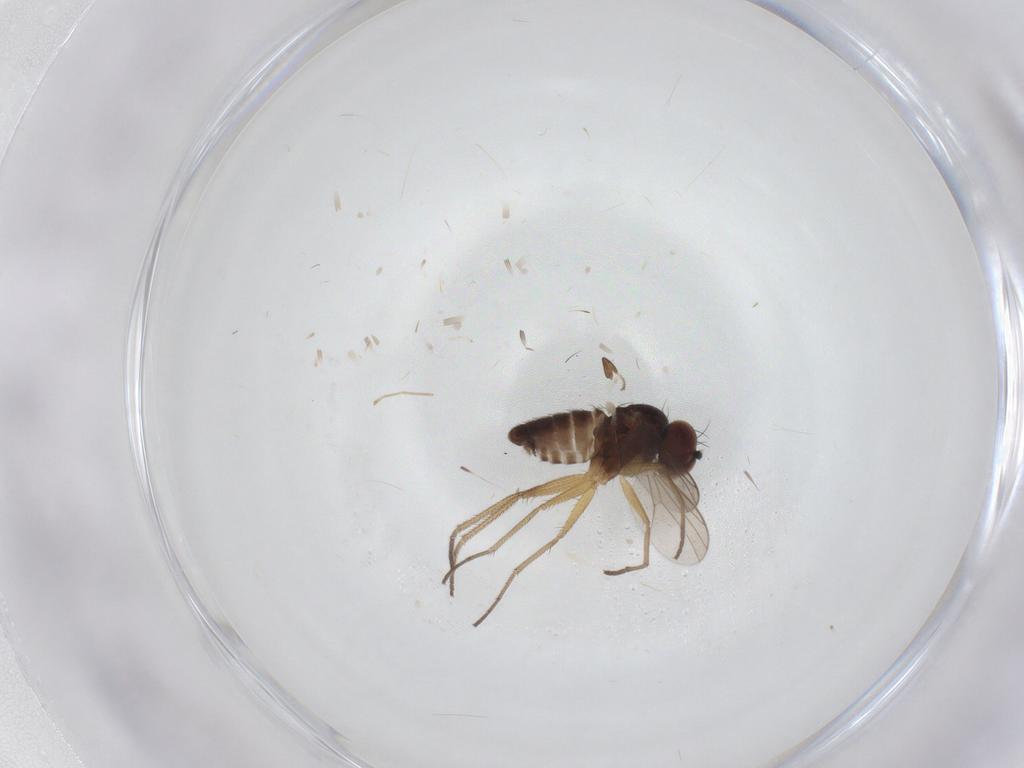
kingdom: Animalia
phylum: Arthropoda
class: Insecta
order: Diptera
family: Dolichopodidae
